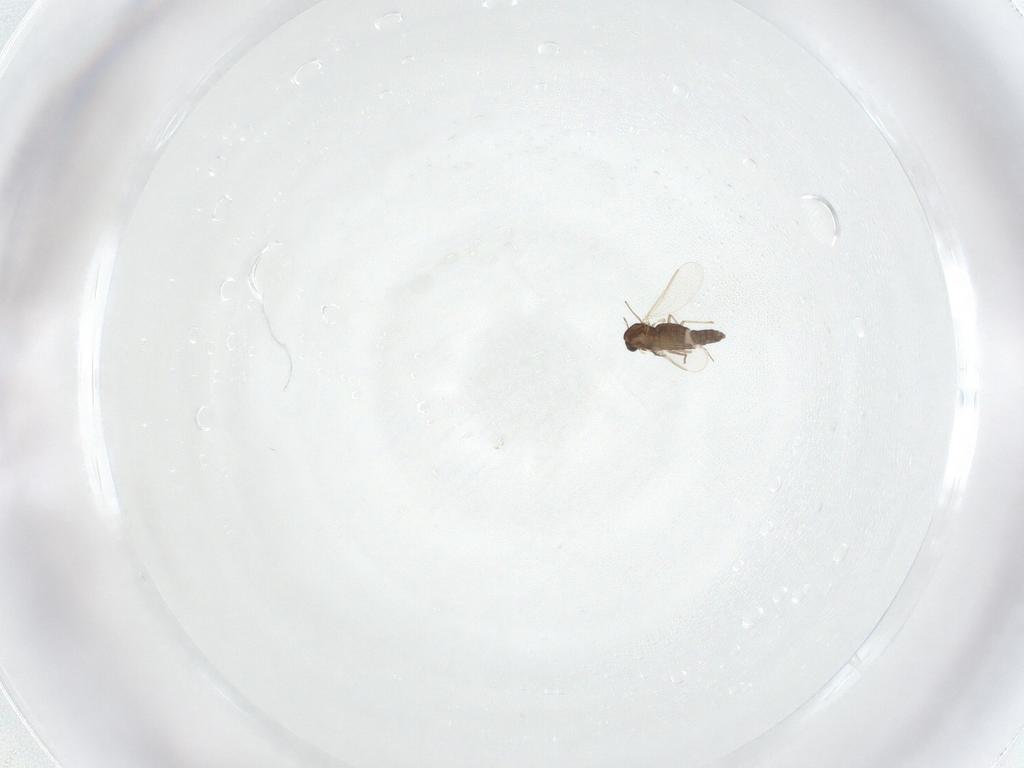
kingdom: Animalia
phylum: Arthropoda
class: Insecta
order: Diptera
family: Chironomidae
